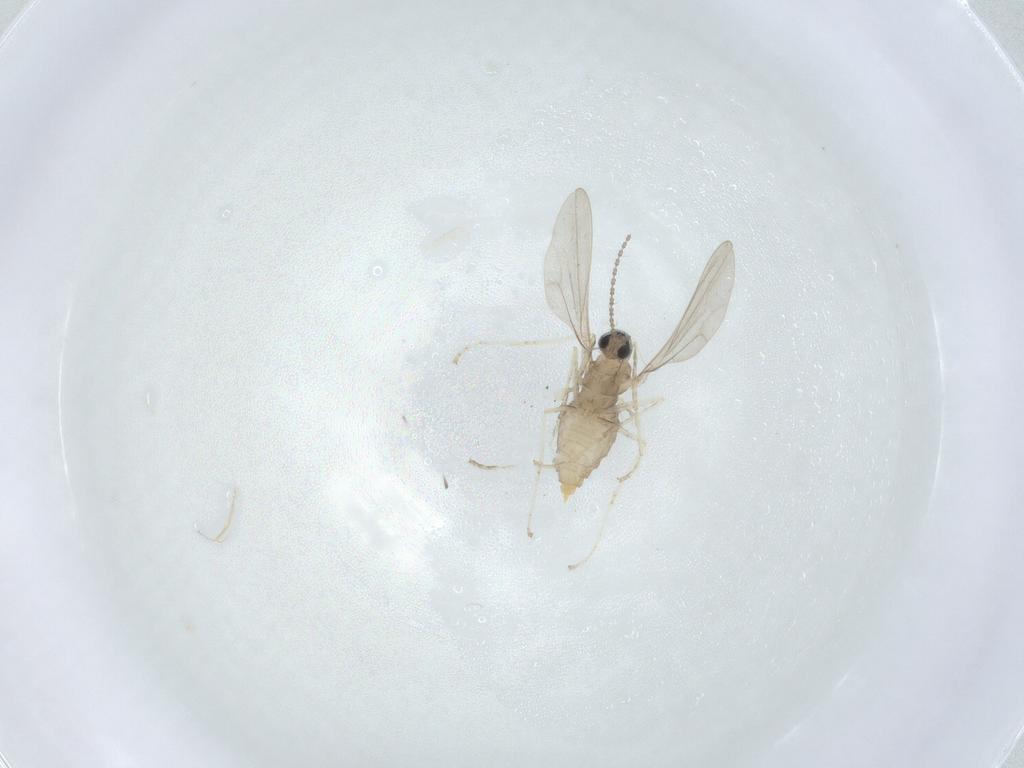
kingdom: Animalia
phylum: Arthropoda
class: Insecta
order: Diptera
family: Cecidomyiidae
